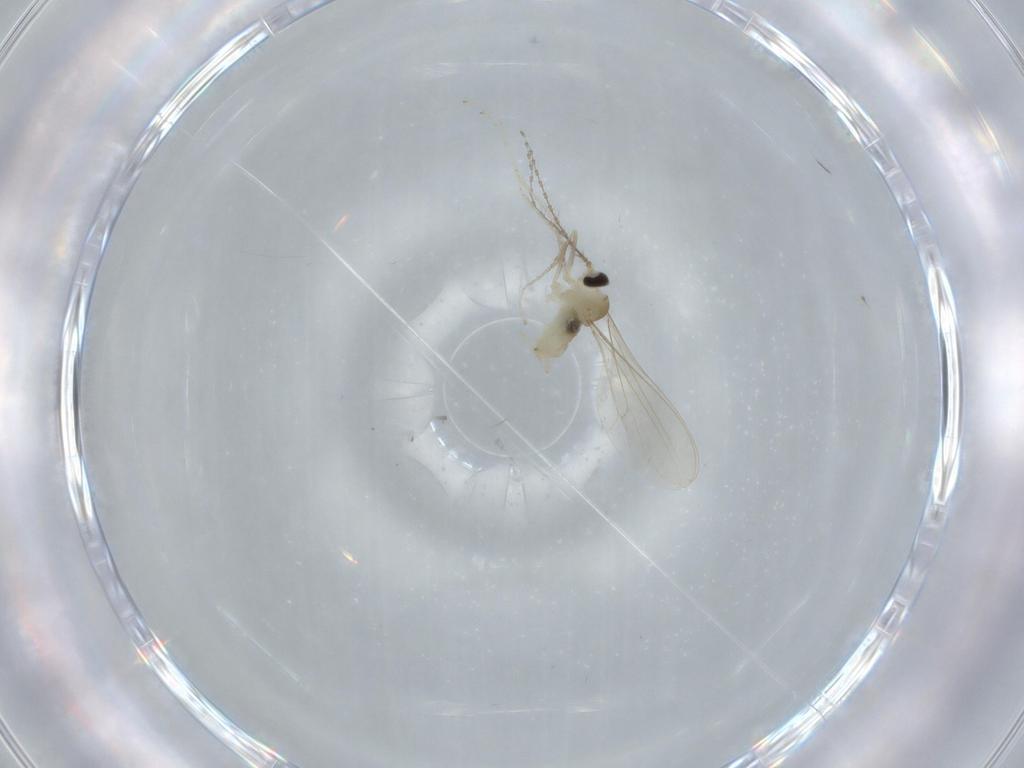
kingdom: Animalia
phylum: Arthropoda
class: Insecta
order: Diptera
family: Cecidomyiidae
